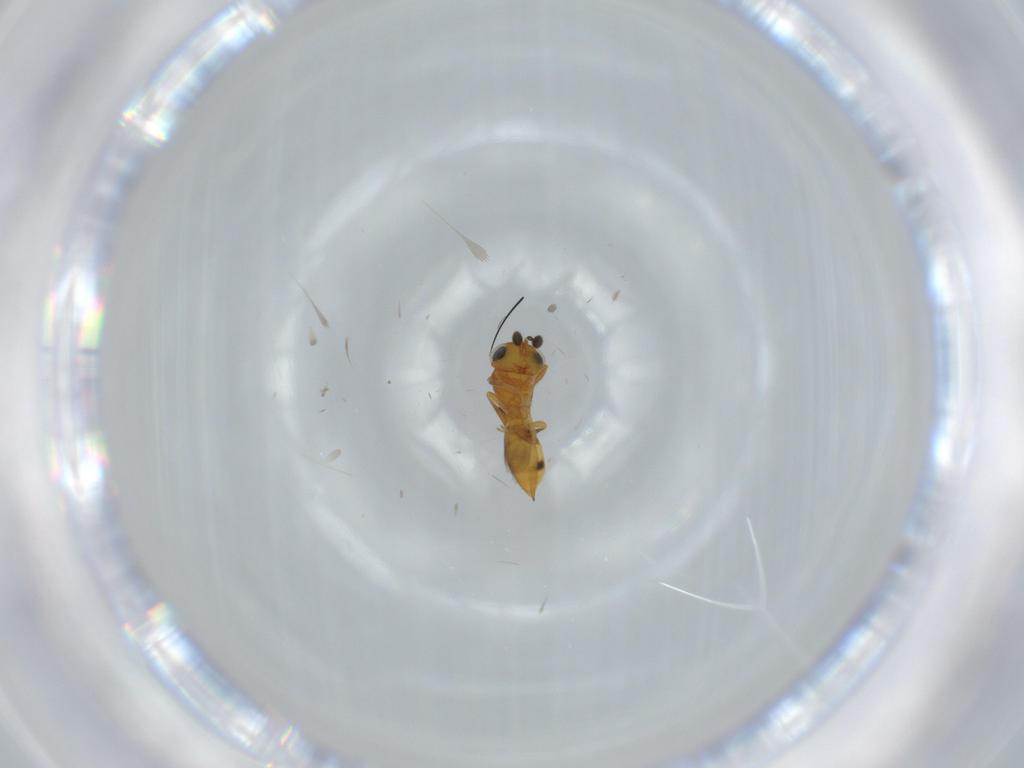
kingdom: Animalia
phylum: Arthropoda
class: Insecta
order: Hymenoptera
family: Scelionidae
